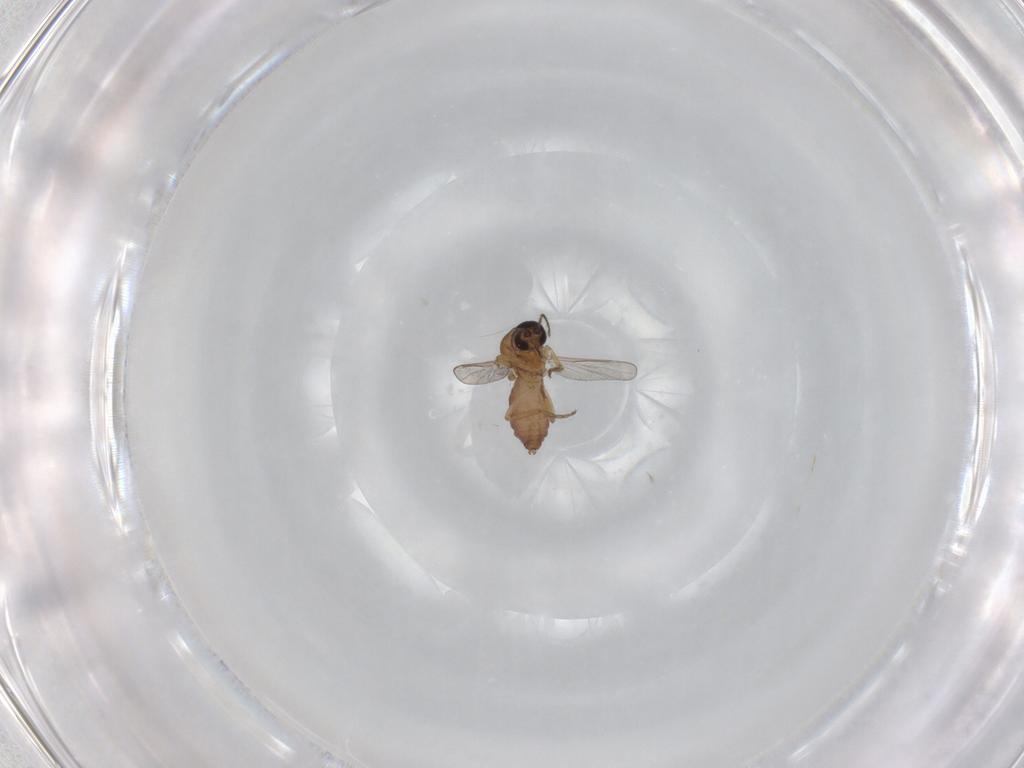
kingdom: Animalia
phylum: Arthropoda
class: Insecta
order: Diptera
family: Ceratopogonidae
